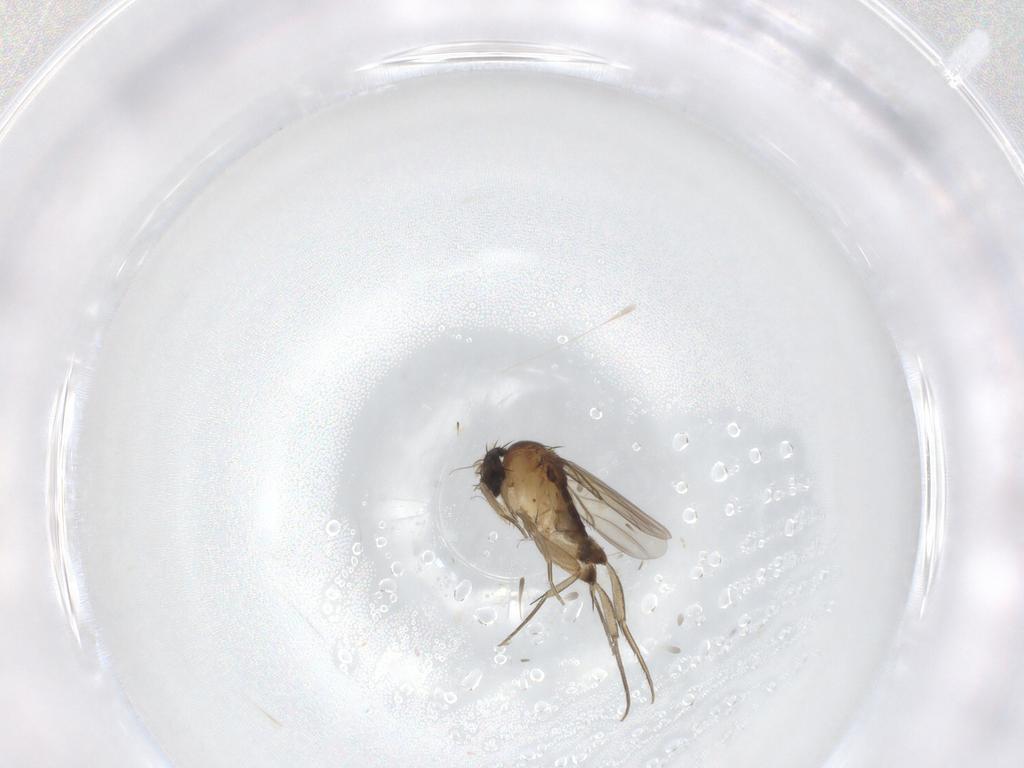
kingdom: Animalia
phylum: Arthropoda
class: Insecta
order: Diptera
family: Phoridae
